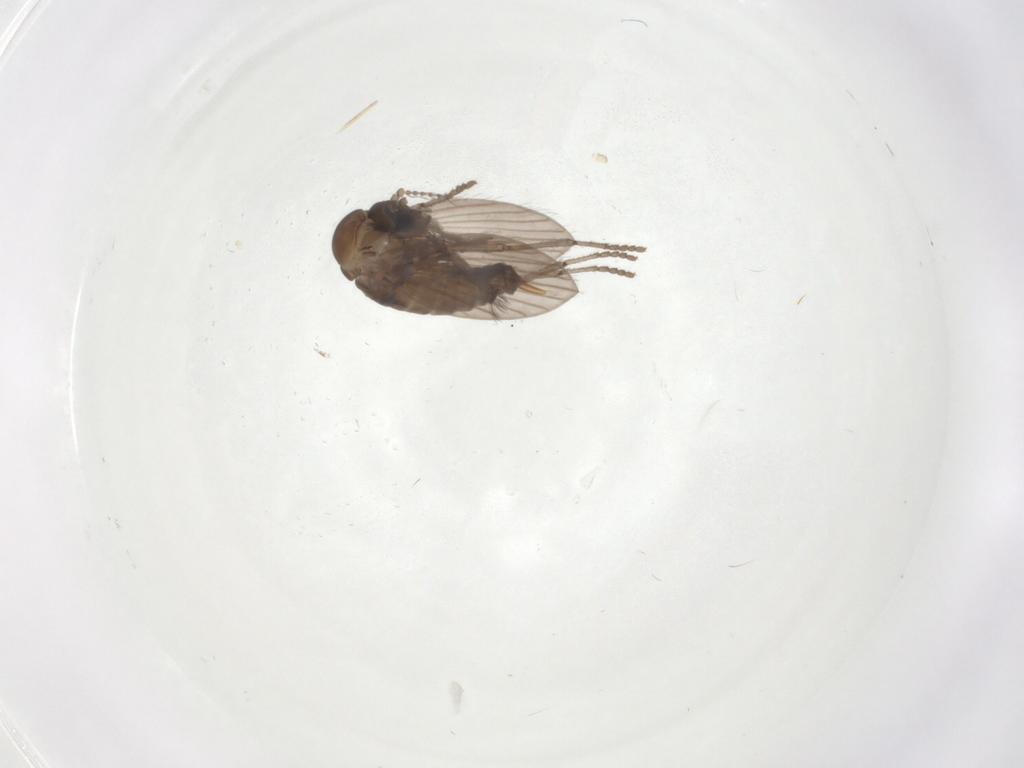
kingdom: Animalia
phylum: Arthropoda
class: Insecta
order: Diptera
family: Psychodidae
